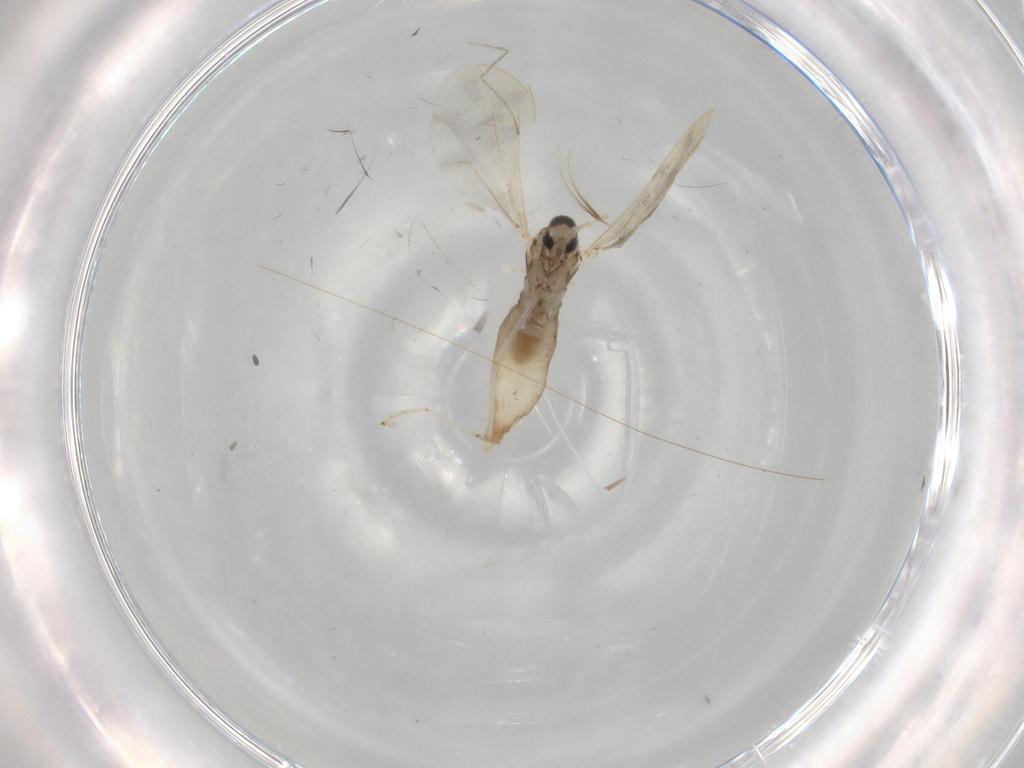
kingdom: Animalia
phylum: Arthropoda
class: Insecta
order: Diptera
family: Cecidomyiidae
